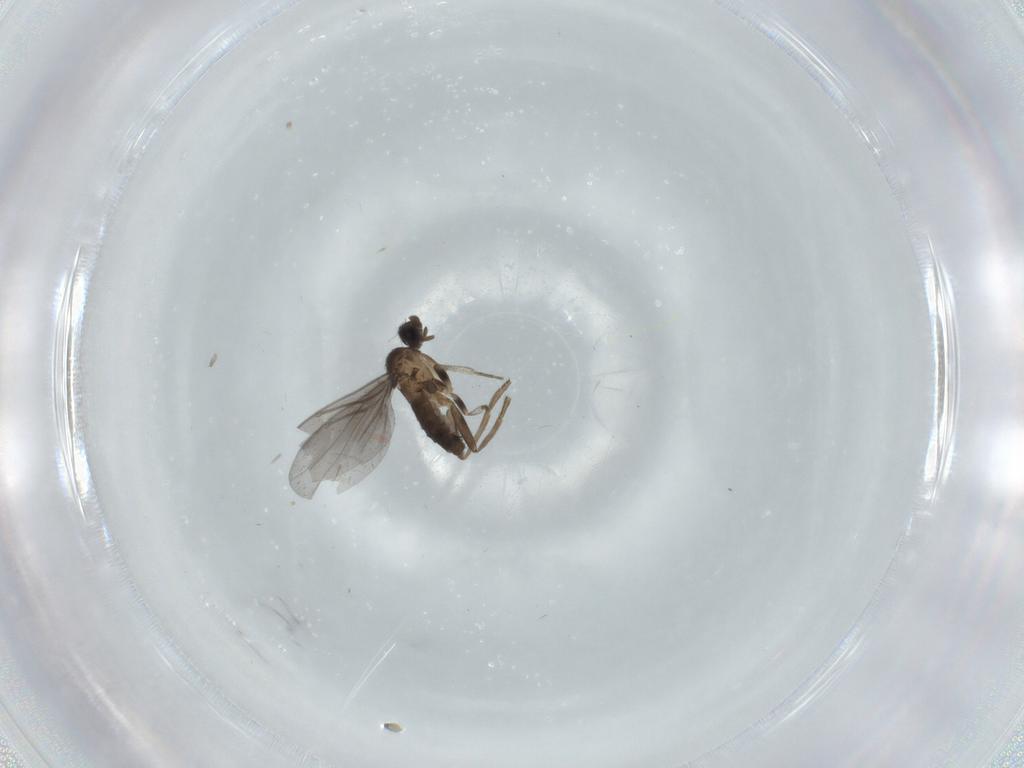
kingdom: Animalia
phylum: Arthropoda
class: Insecta
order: Diptera
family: Phoridae
